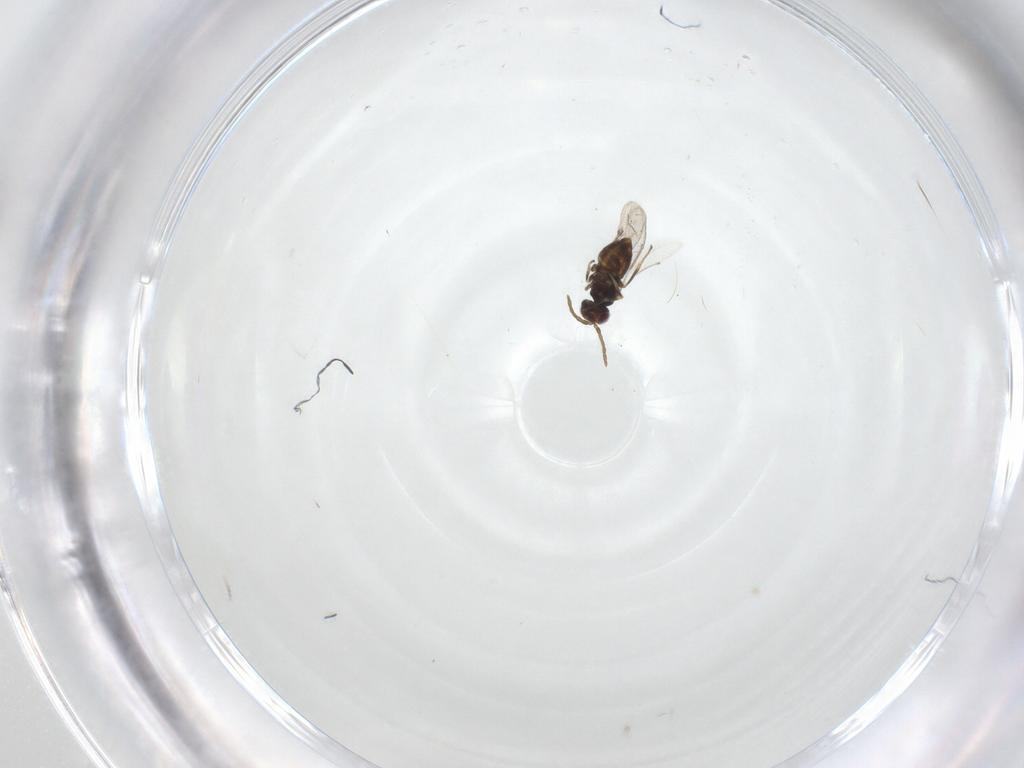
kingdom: Animalia
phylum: Arthropoda
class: Insecta
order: Hymenoptera
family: Aphelinidae
